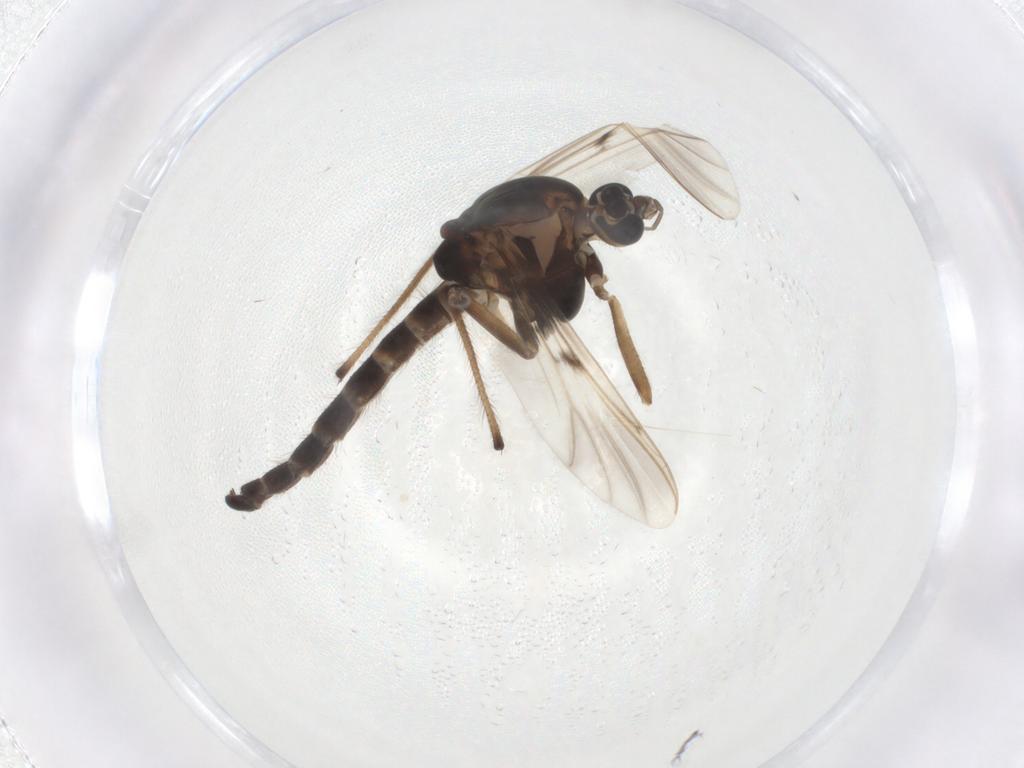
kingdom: Animalia
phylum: Arthropoda
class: Insecta
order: Diptera
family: Chironomidae
